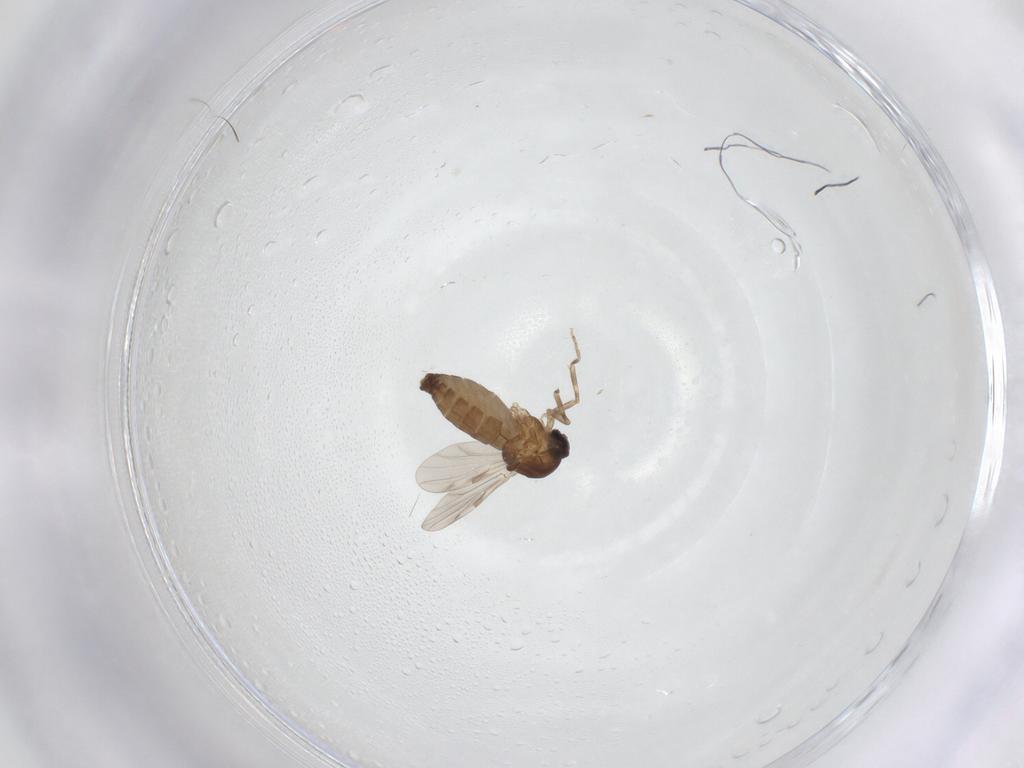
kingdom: Animalia
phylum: Arthropoda
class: Insecta
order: Diptera
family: Ceratopogonidae
